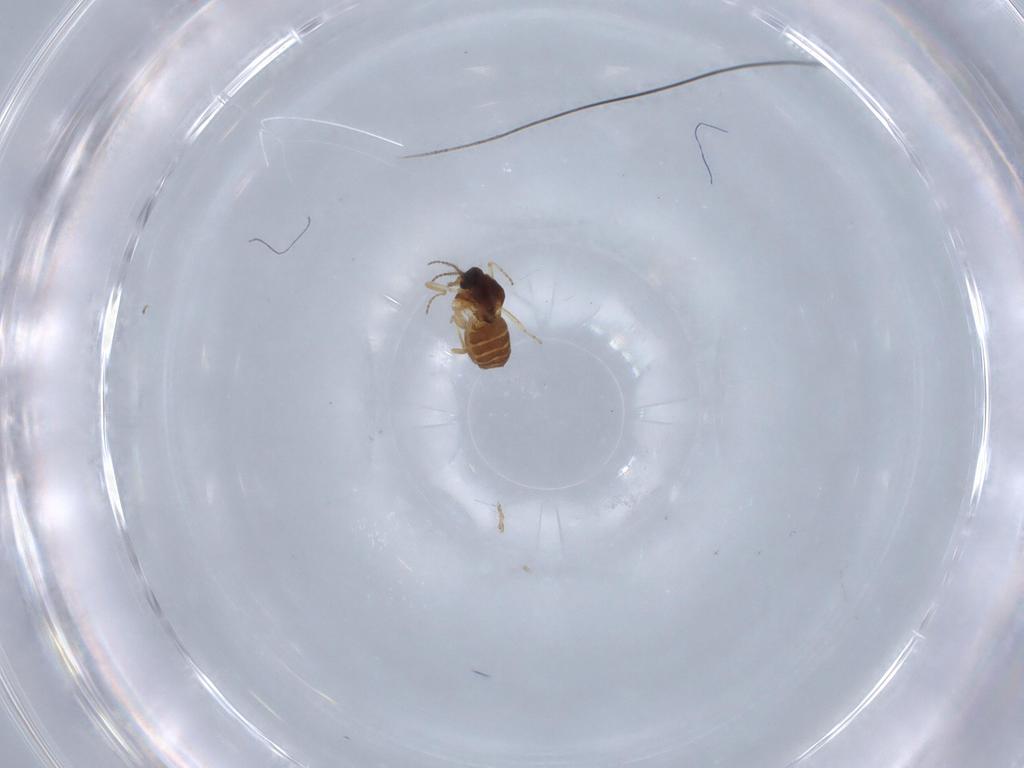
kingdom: Animalia
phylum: Arthropoda
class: Insecta
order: Diptera
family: Ceratopogonidae
